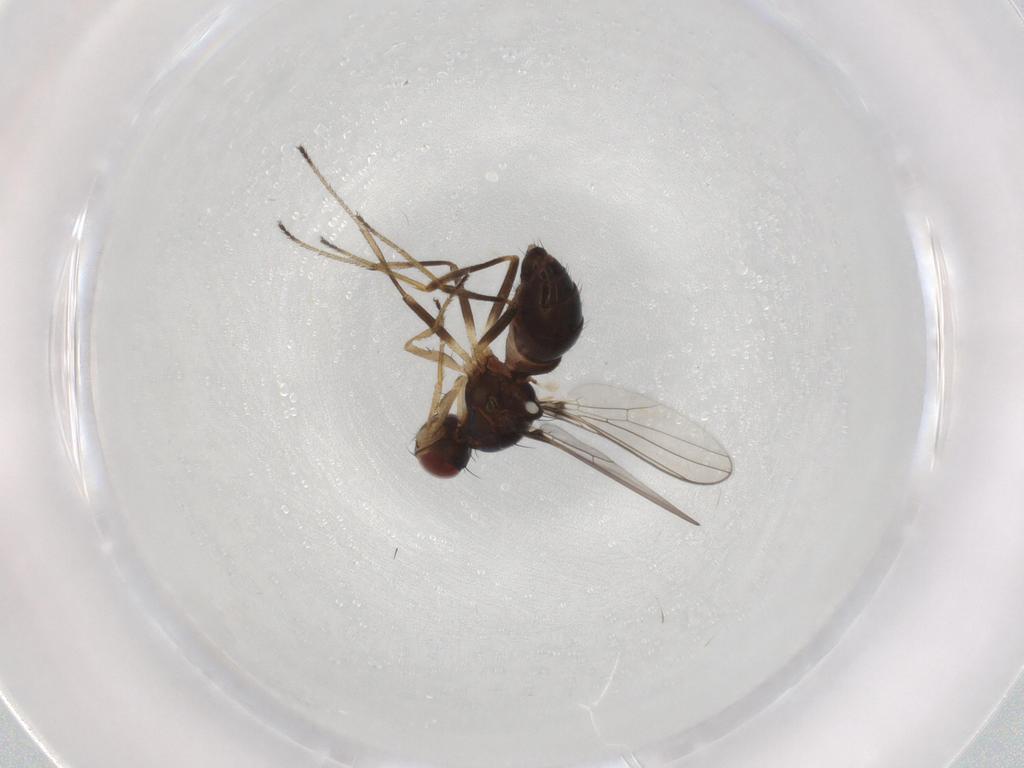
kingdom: Animalia
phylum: Arthropoda
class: Insecta
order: Diptera
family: Sepsidae
